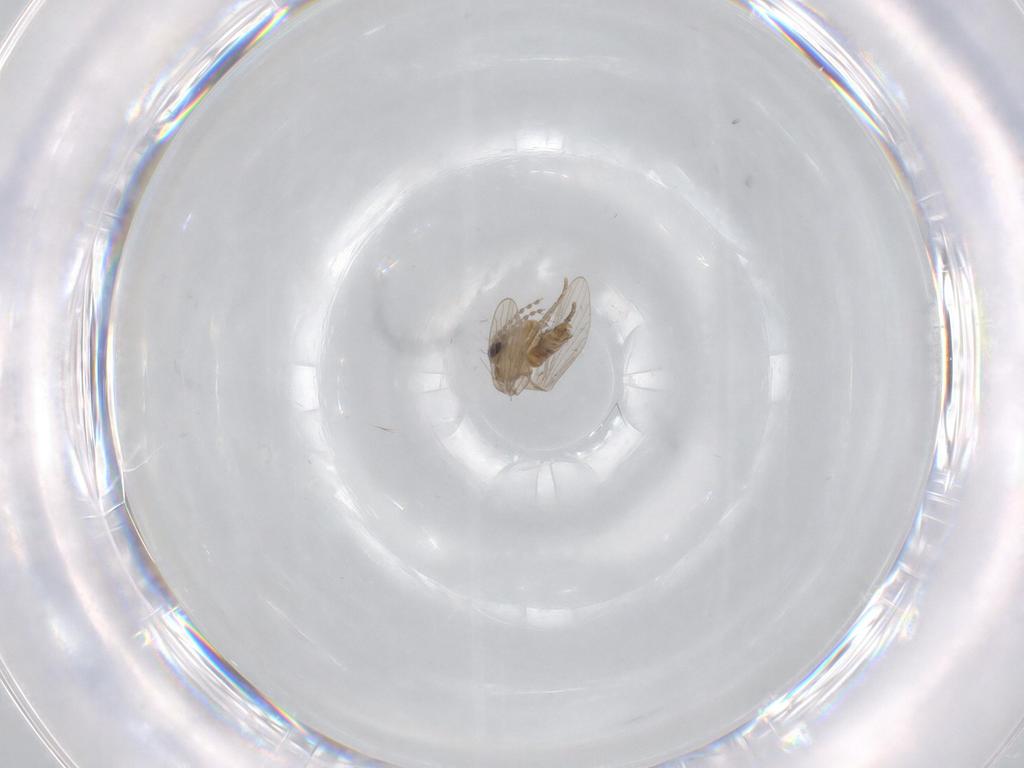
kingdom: Animalia
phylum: Arthropoda
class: Insecta
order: Diptera
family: Psychodidae
